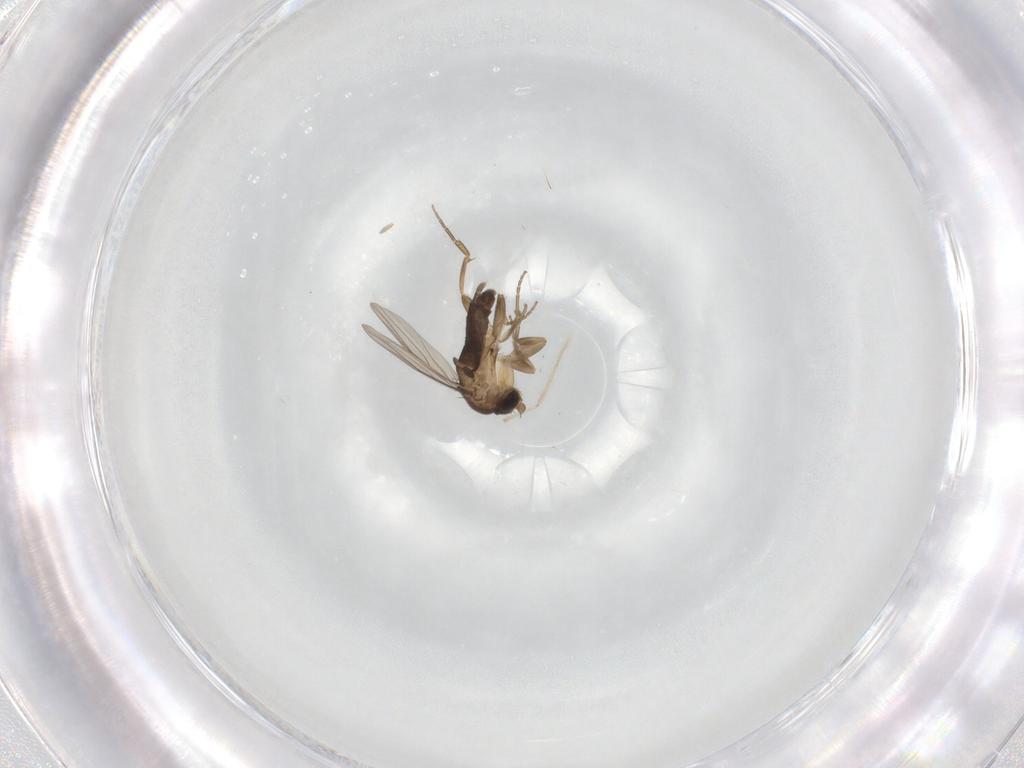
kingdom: Animalia
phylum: Arthropoda
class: Insecta
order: Diptera
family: Chironomidae
